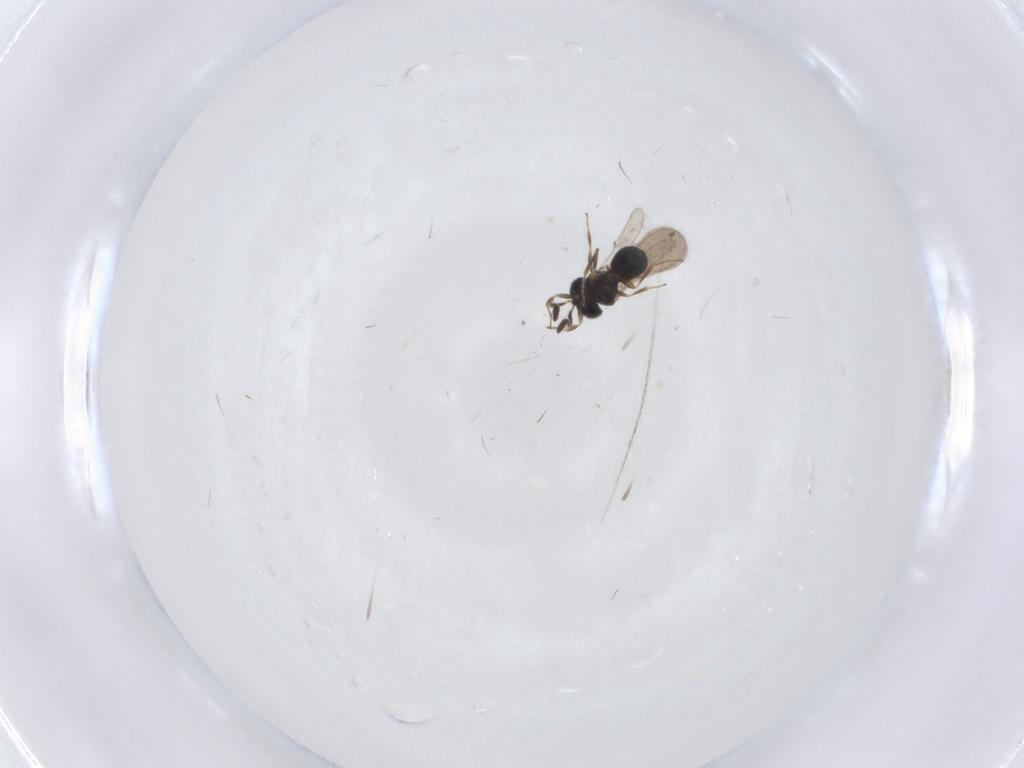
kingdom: Animalia
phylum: Arthropoda
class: Insecta
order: Hymenoptera
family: Scelionidae
